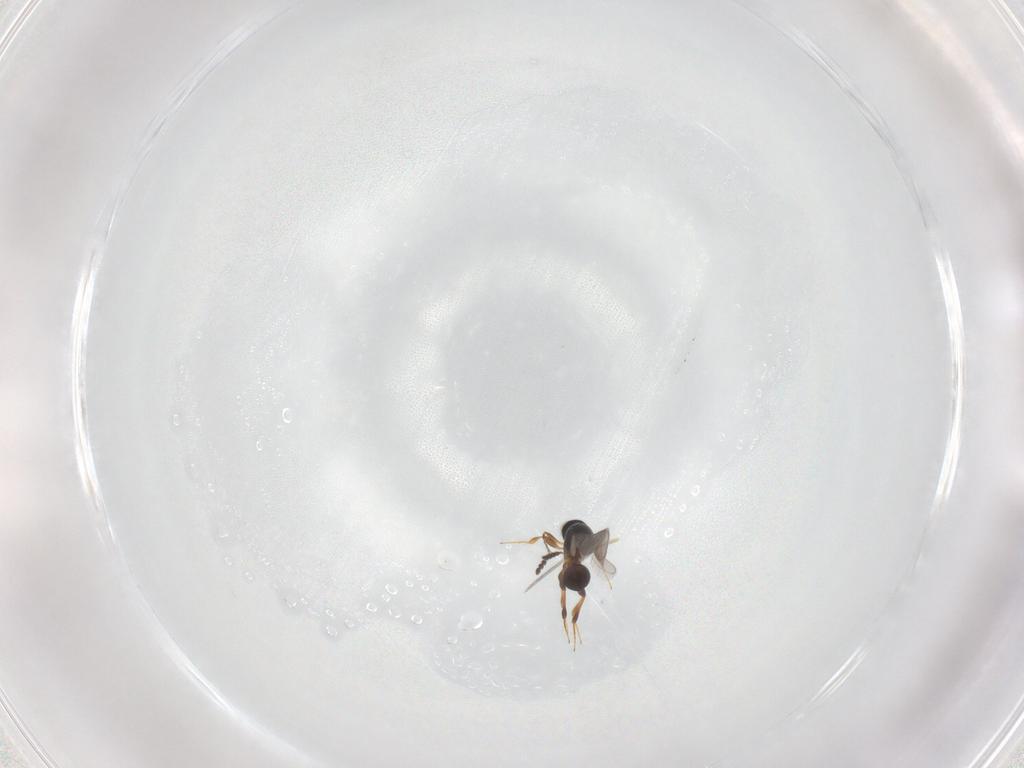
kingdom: Animalia
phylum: Arthropoda
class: Insecta
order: Hymenoptera
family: Platygastridae
